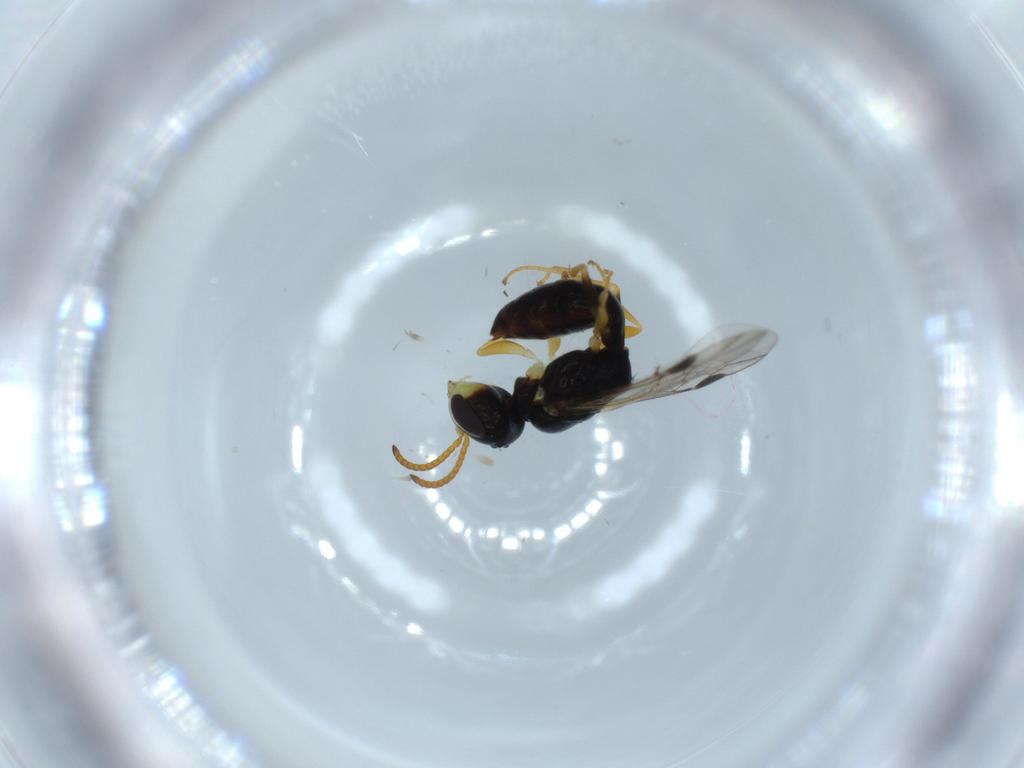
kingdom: Animalia
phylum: Arthropoda
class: Insecta
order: Hymenoptera
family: Pemphredonidae
